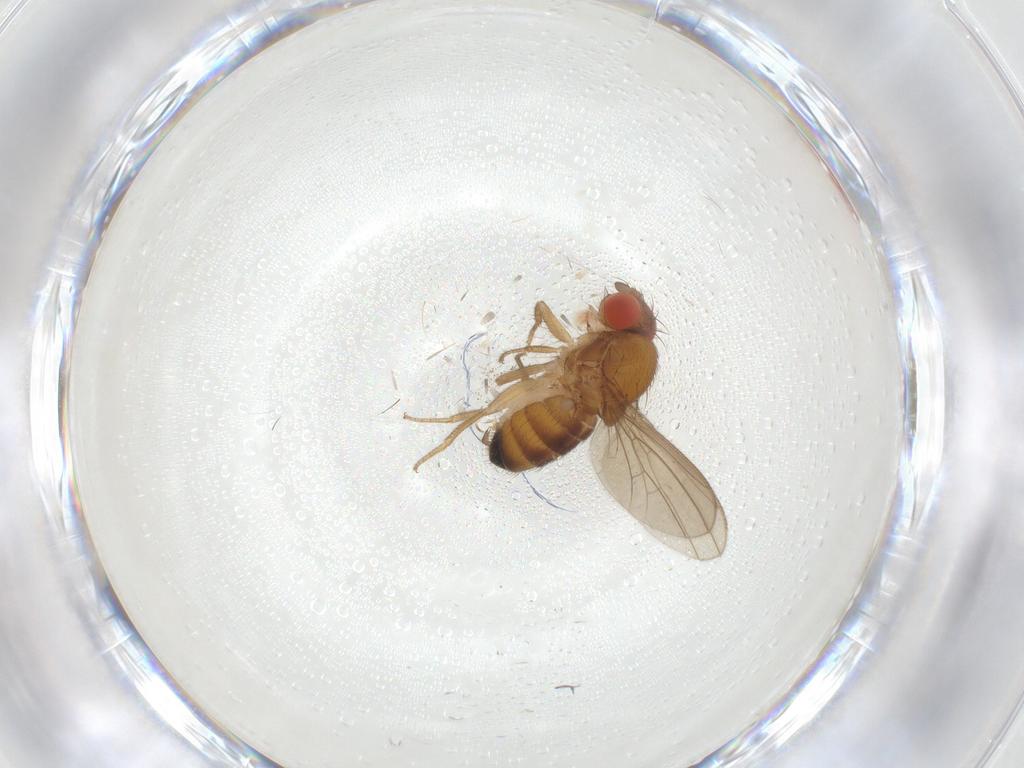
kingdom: Animalia
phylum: Arthropoda
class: Insecta
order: Diptera
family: Drosophilidae
